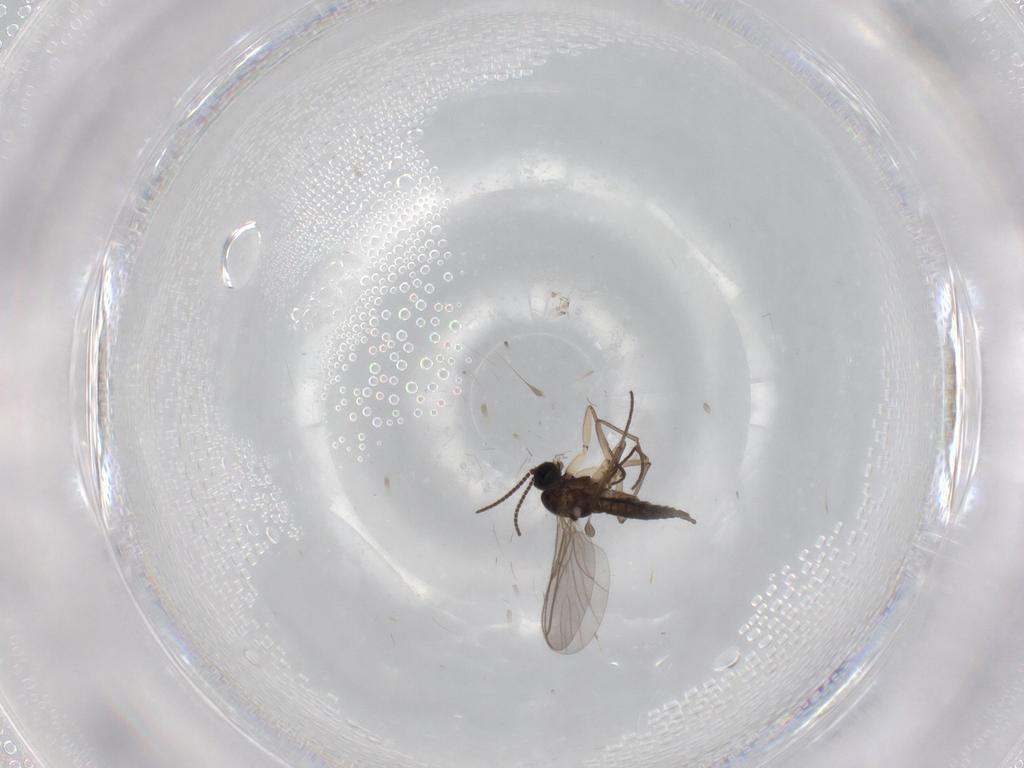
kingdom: Animalia
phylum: Arthropoda
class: Insecta
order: Diptera
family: Sciaridae
